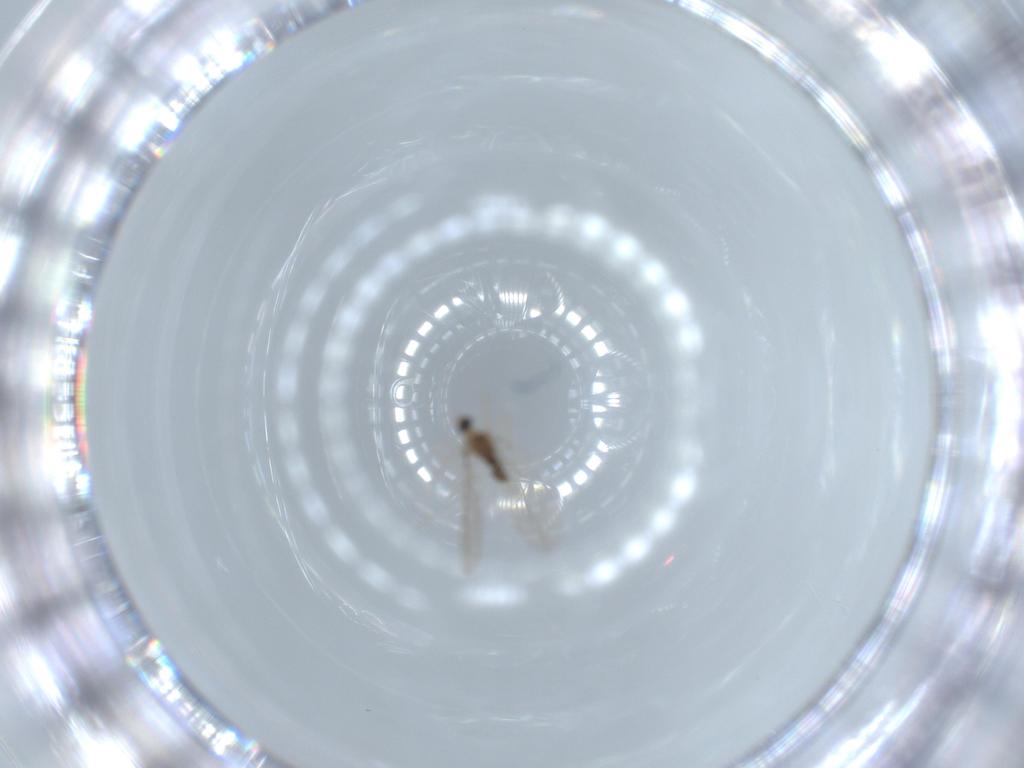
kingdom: Animalia
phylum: Arthropoda
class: Insecta
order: Diptera
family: Cecidomyiidae
